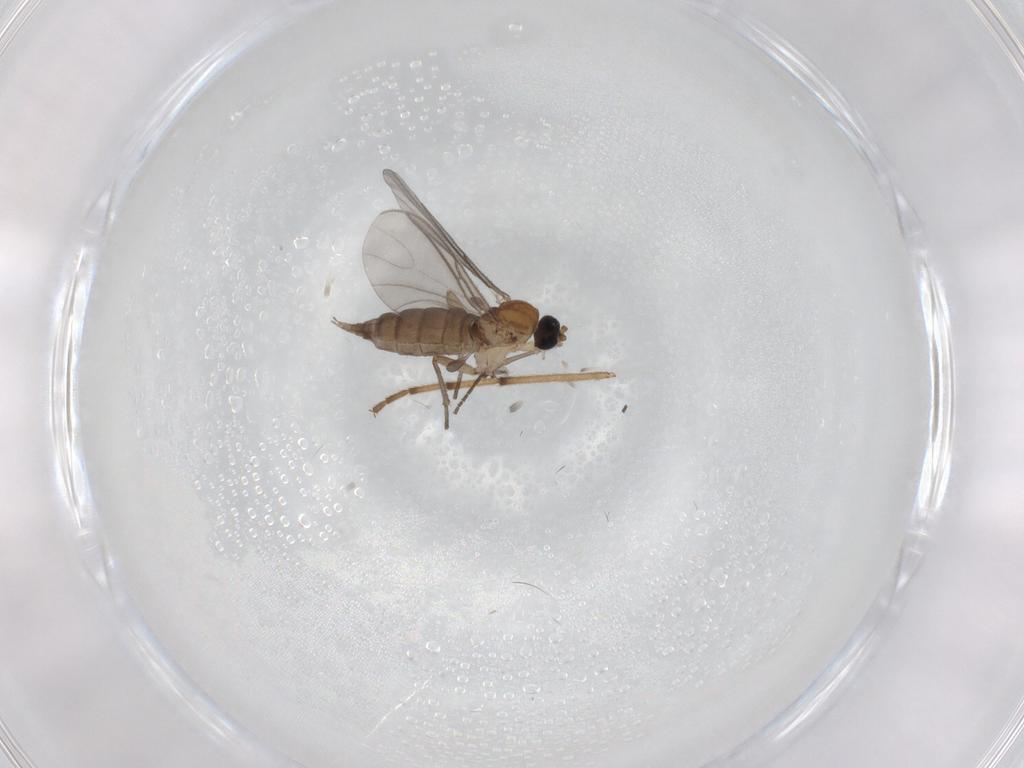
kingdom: Animalia
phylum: Arthropoda
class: Insecta
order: Diptera
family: Sciaridae
